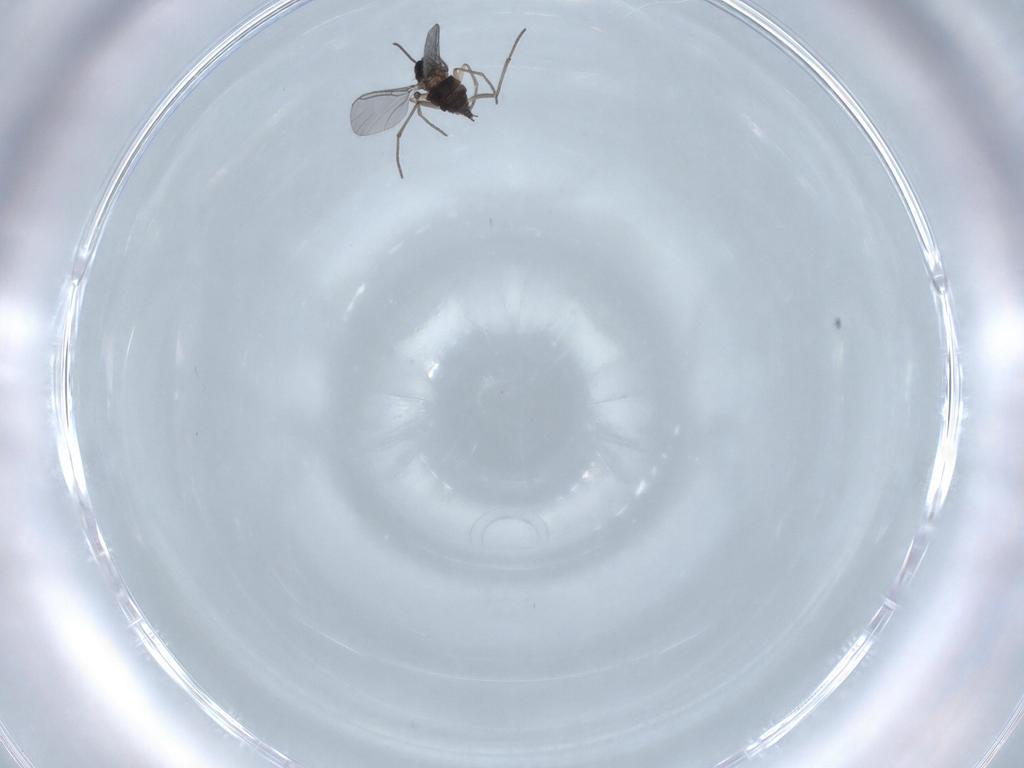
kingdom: Animalia
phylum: Arthropoda
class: Insecta
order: Diptera
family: Sciaridae
